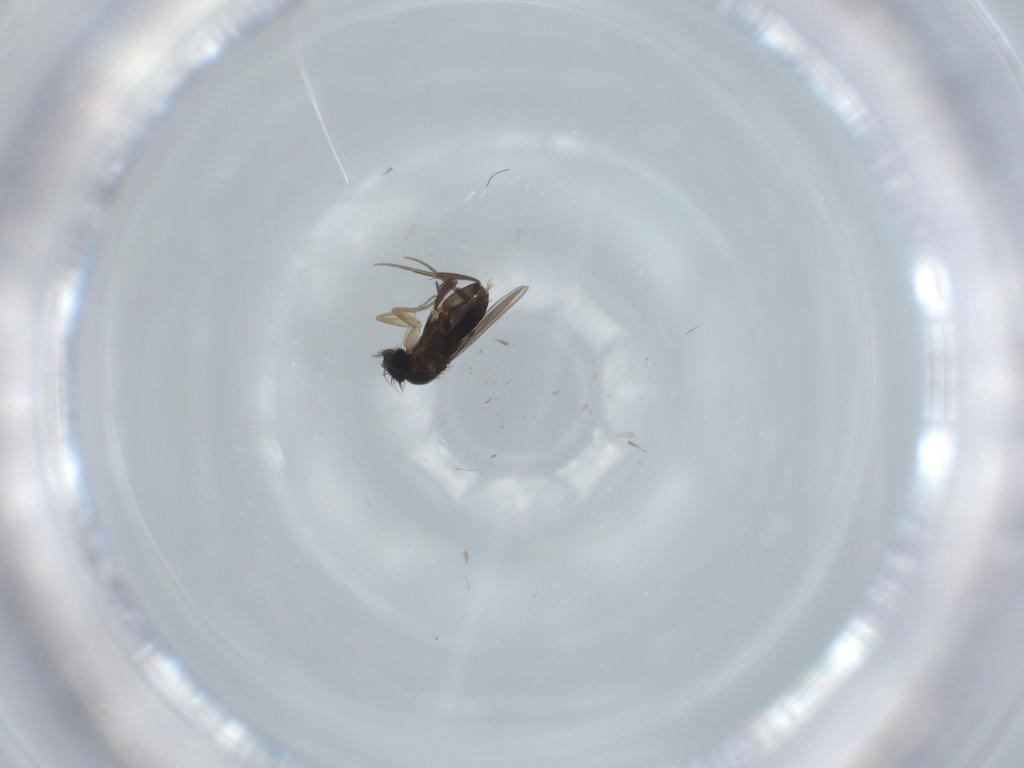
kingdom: Animalia
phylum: Arthropoda
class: Insecta
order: Diptera
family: Phoridae
